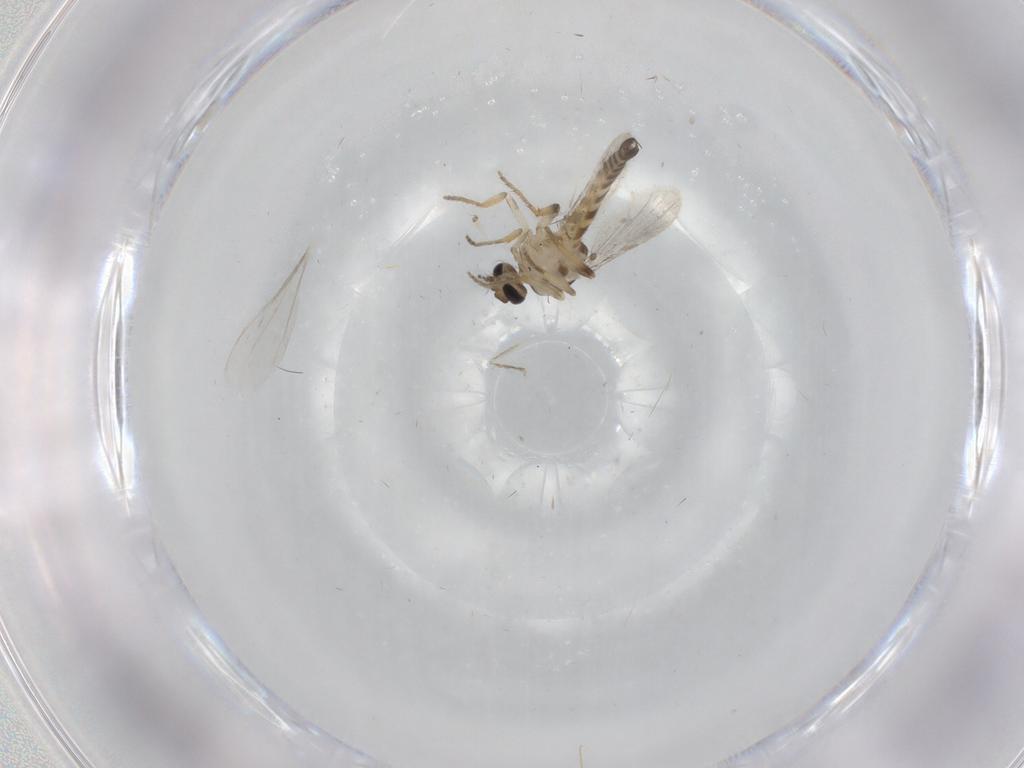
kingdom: Animalia
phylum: Arthropoda
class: Insecta
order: Diptera
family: Cecidomyiidae
